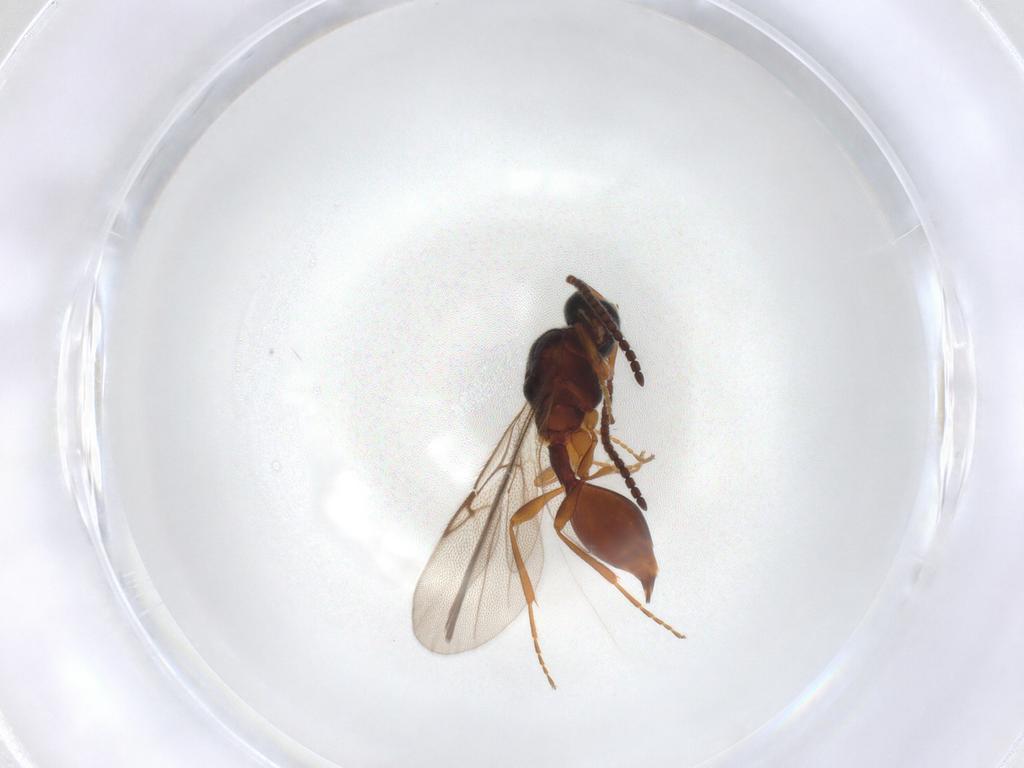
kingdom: Animalia
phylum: Arthropoda
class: Insecta
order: Hymenoptera
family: Diapriidae
